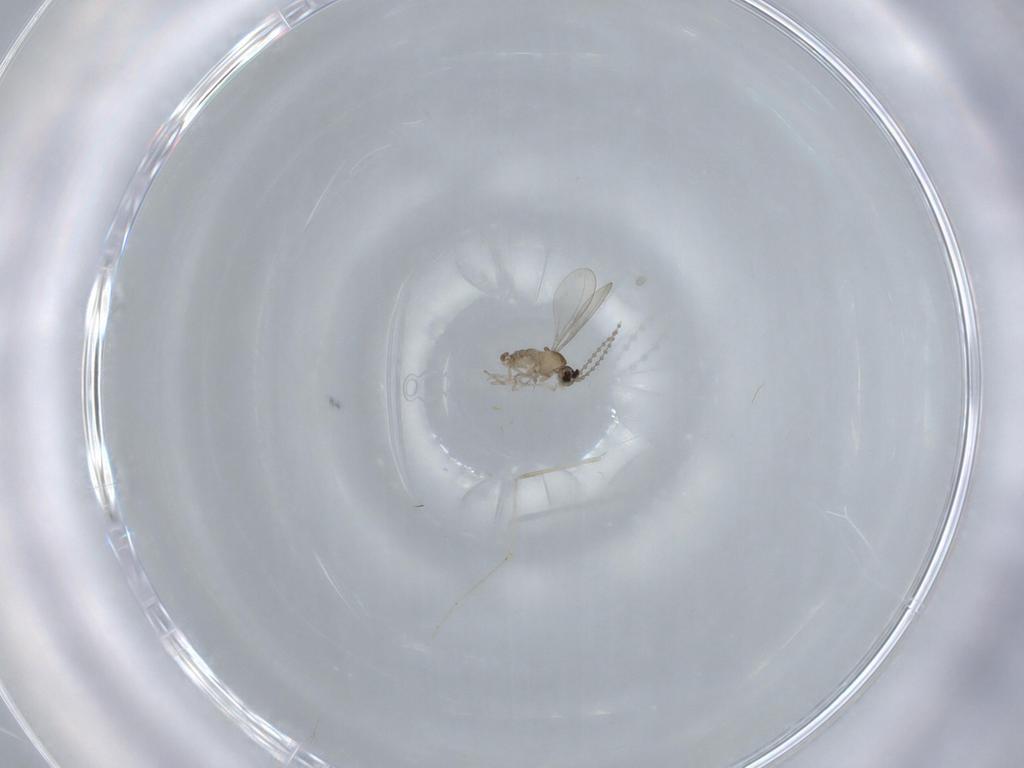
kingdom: Animalia
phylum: Arthropoda
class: Insecta
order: Diptera
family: Cecidomyiidae
